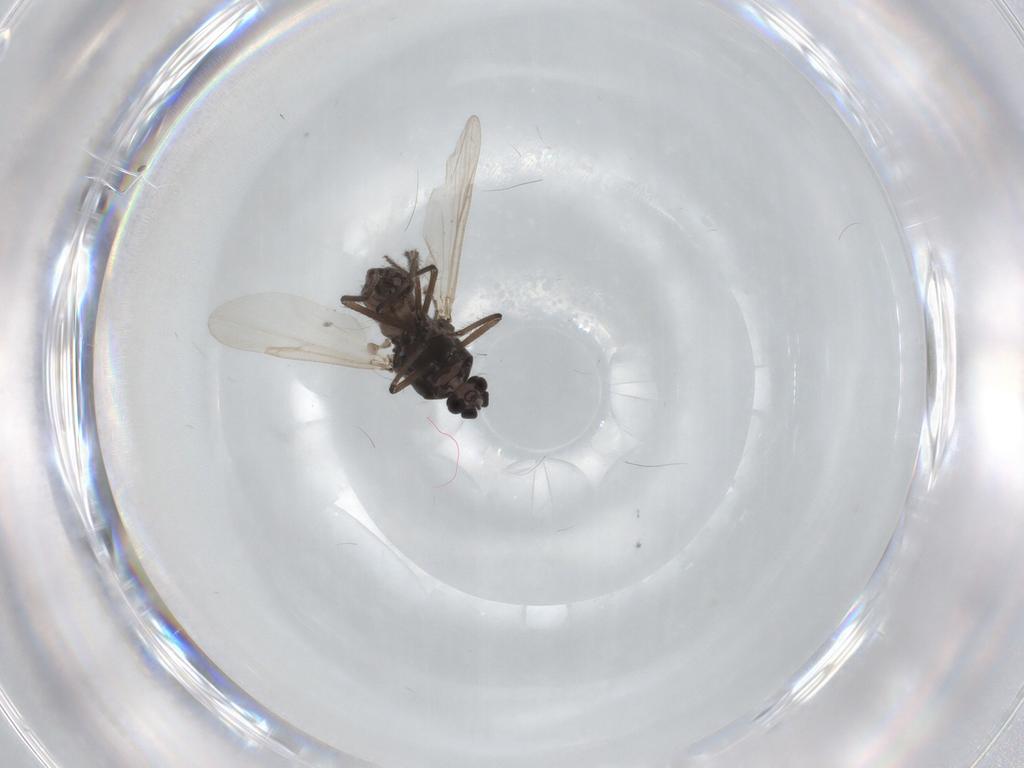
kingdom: Animalia
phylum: Arthropoda
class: Insecta
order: Diptera
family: Ceratopogonidae
